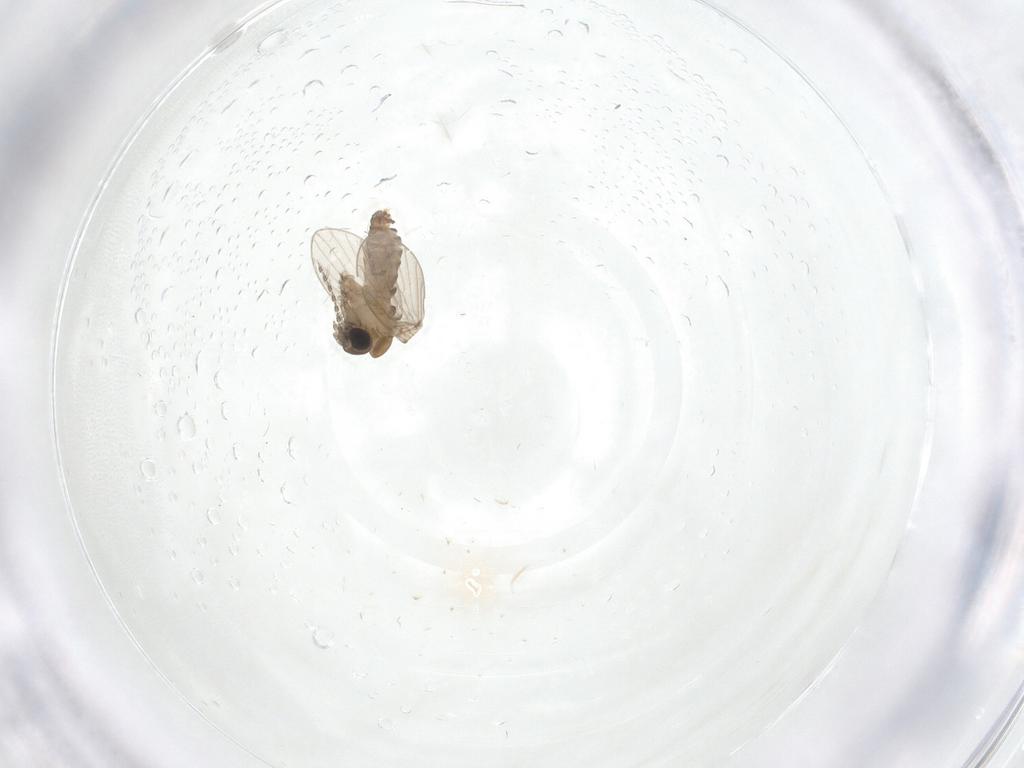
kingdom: Animalia
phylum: Arthropoda
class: Insecta
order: Diptera
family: Psychodidae
